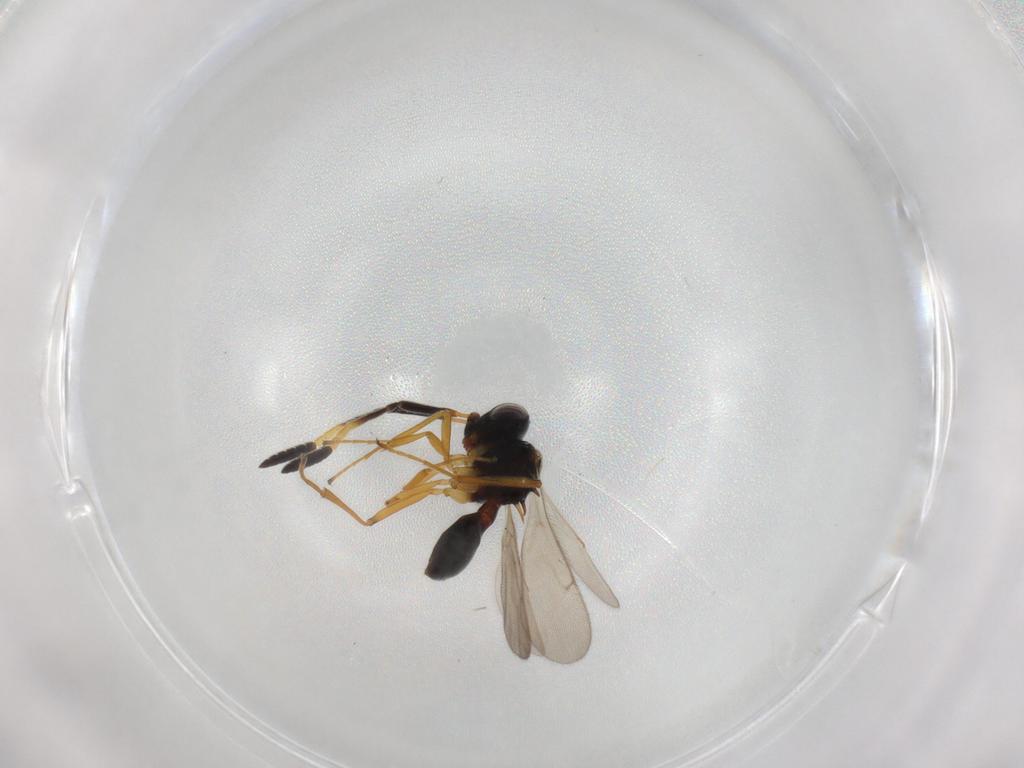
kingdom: Animalia
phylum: Arthropoda
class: Insecta
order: Hymenoptera
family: Scelionidae
